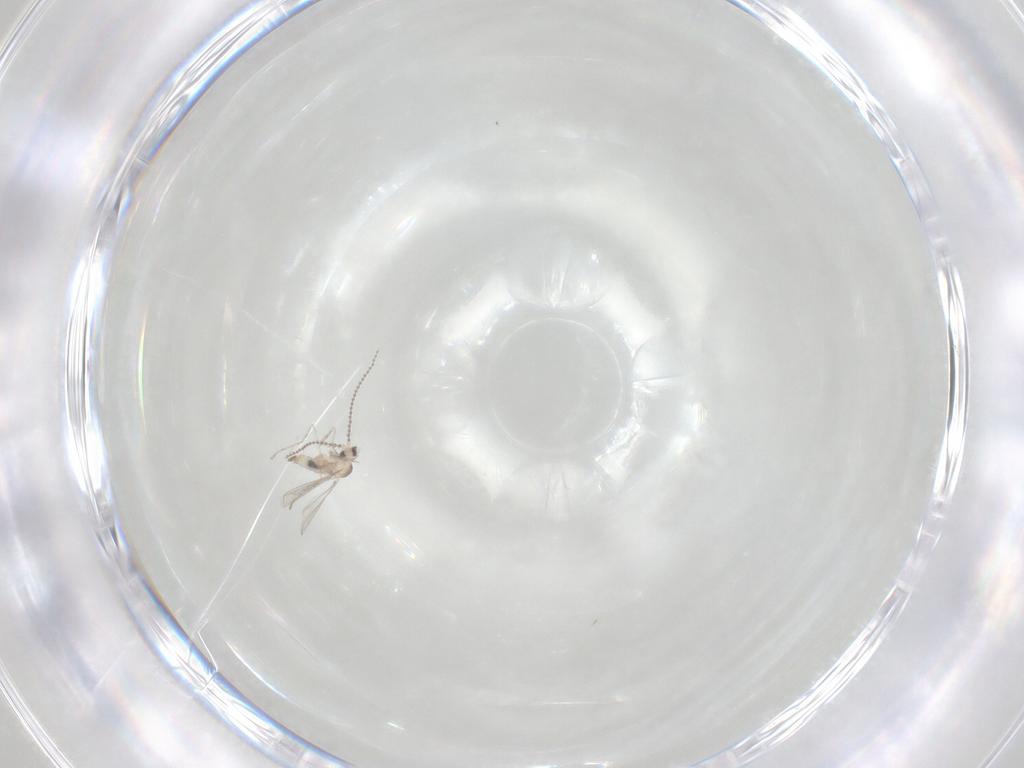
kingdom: Animalia
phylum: Arthropoda
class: Insecta
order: Diptera
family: Cecidomyiidae
